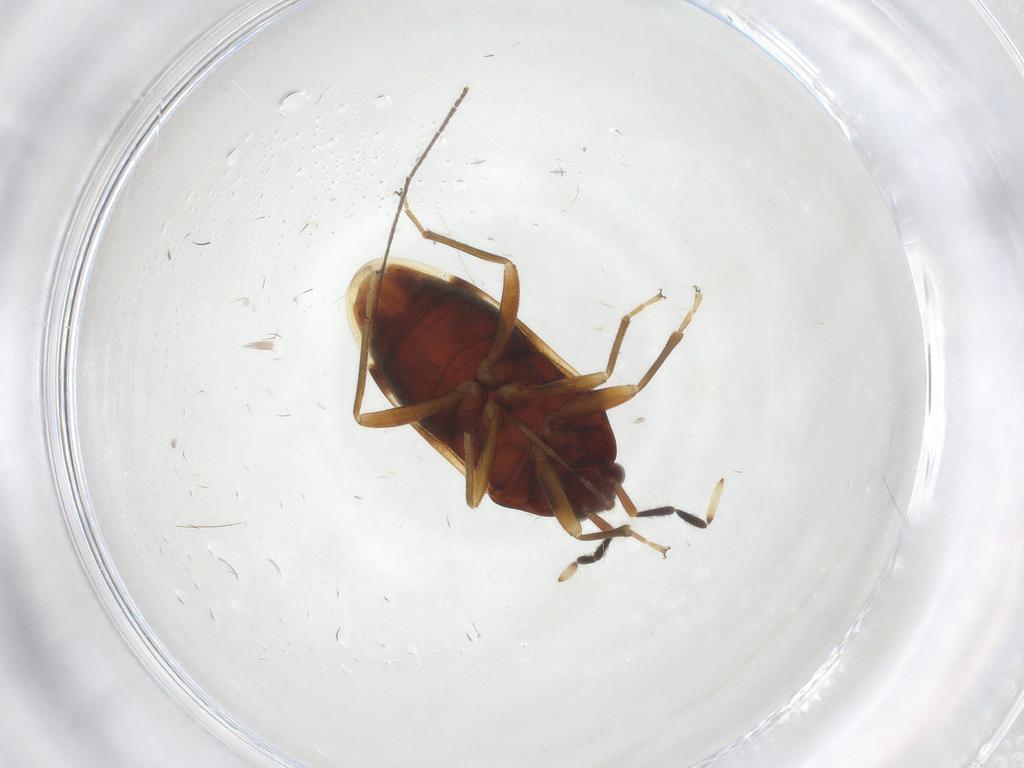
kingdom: Animalia
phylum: Arthropoda
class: Insecta
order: Hemiptera
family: Rhyparochromidae
